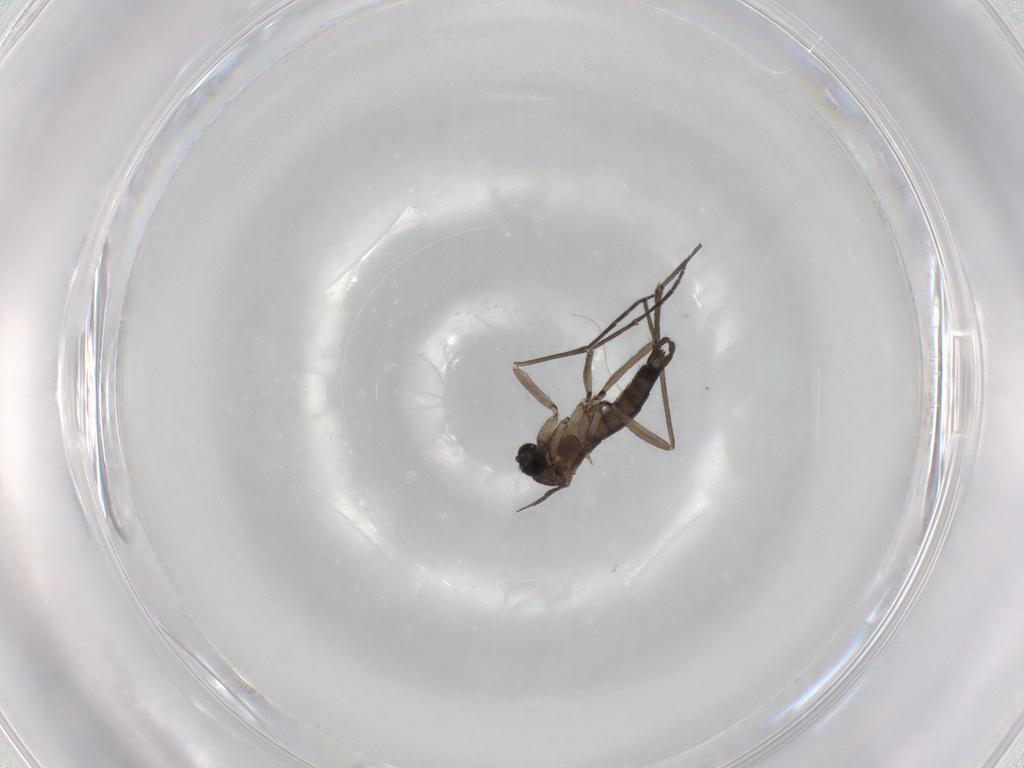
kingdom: Animalia
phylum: Arthropoda
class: Insecta
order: Diptera
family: Sciaridae
